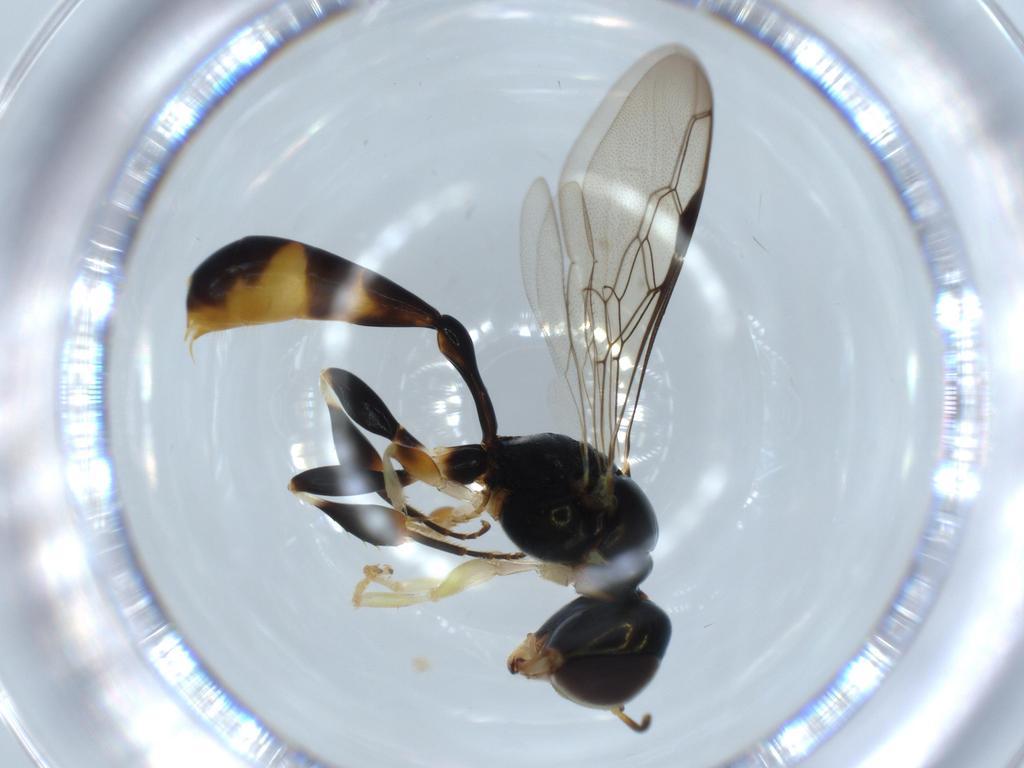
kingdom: Animalia
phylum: Arthropoda
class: Insecta
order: Hymenoptera
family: Crabronidae
